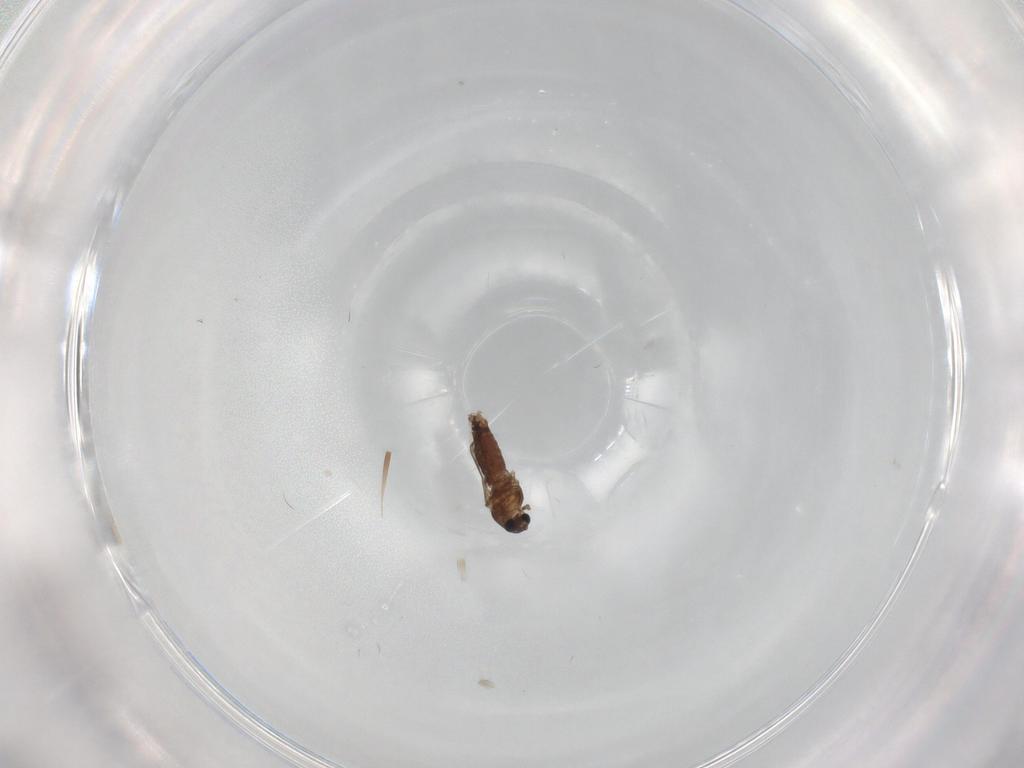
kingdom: Animalia
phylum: Arthropoda
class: Insecta
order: Diptera
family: Chironomidae
